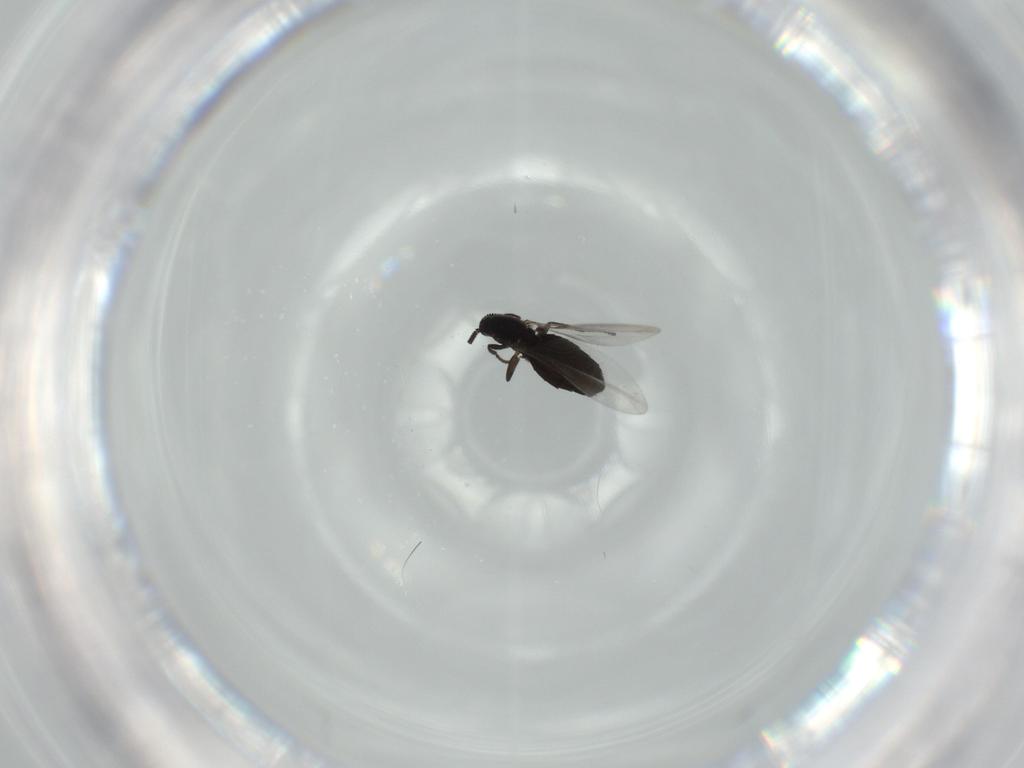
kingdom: Animalia
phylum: Arthropoda
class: Insecta
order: Diptera
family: Scatopsidae
